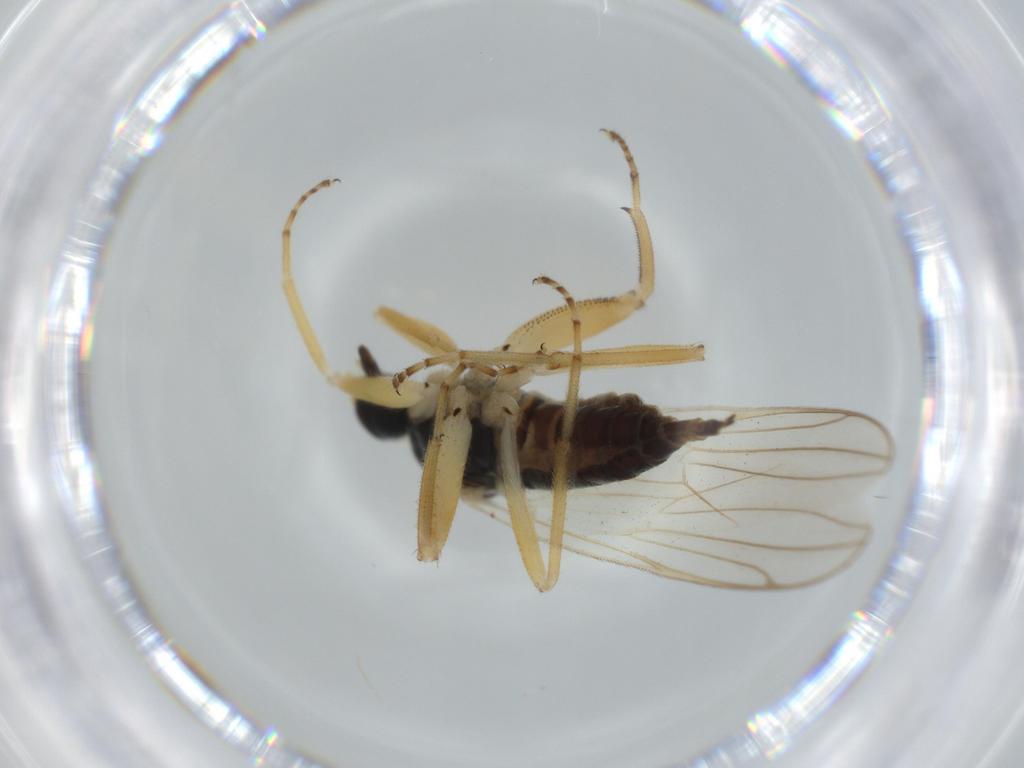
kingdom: Animalia
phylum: Arthropoda
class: Insecta
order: Diptera
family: Hybotidae
